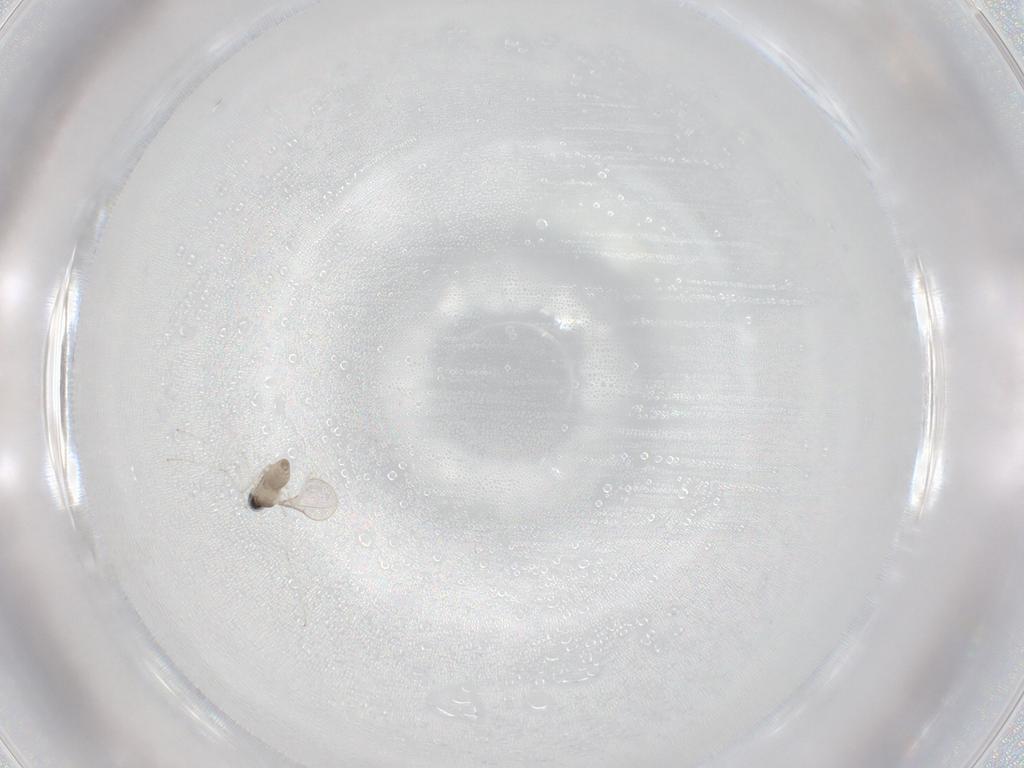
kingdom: Animalia
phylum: Arthropoda
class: Insecta
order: Diptera
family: Cecidomyiidae
